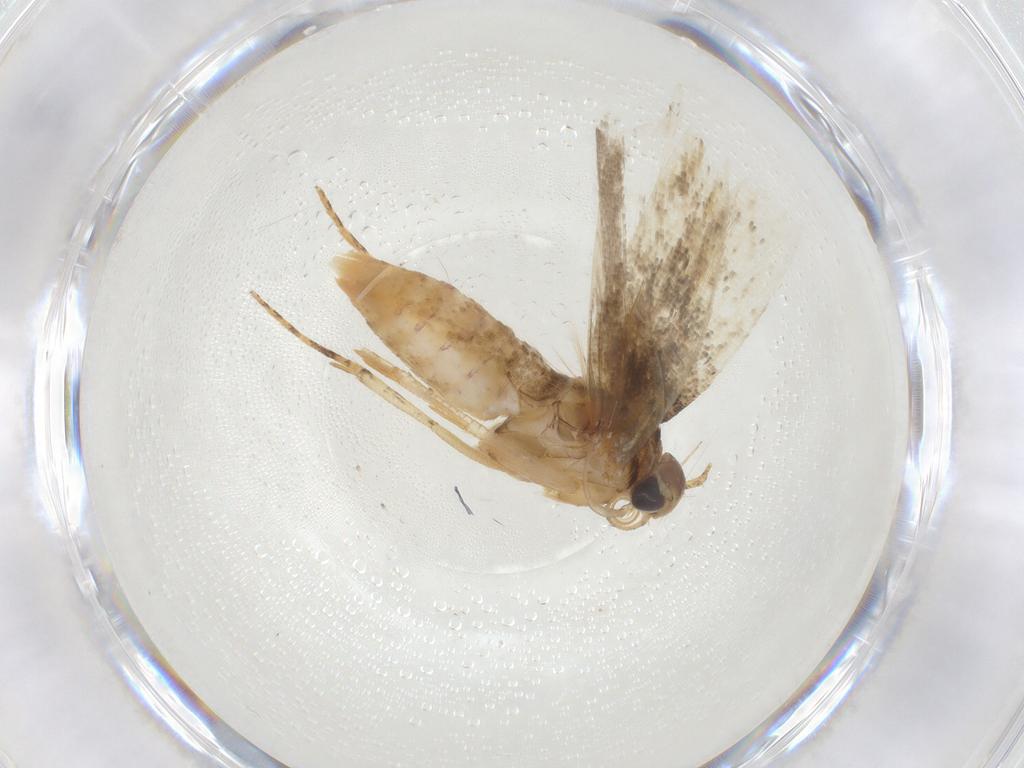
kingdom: Animalia
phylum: Arthropoda
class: Insecta
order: Lepidoptera
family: Gelechiidae
